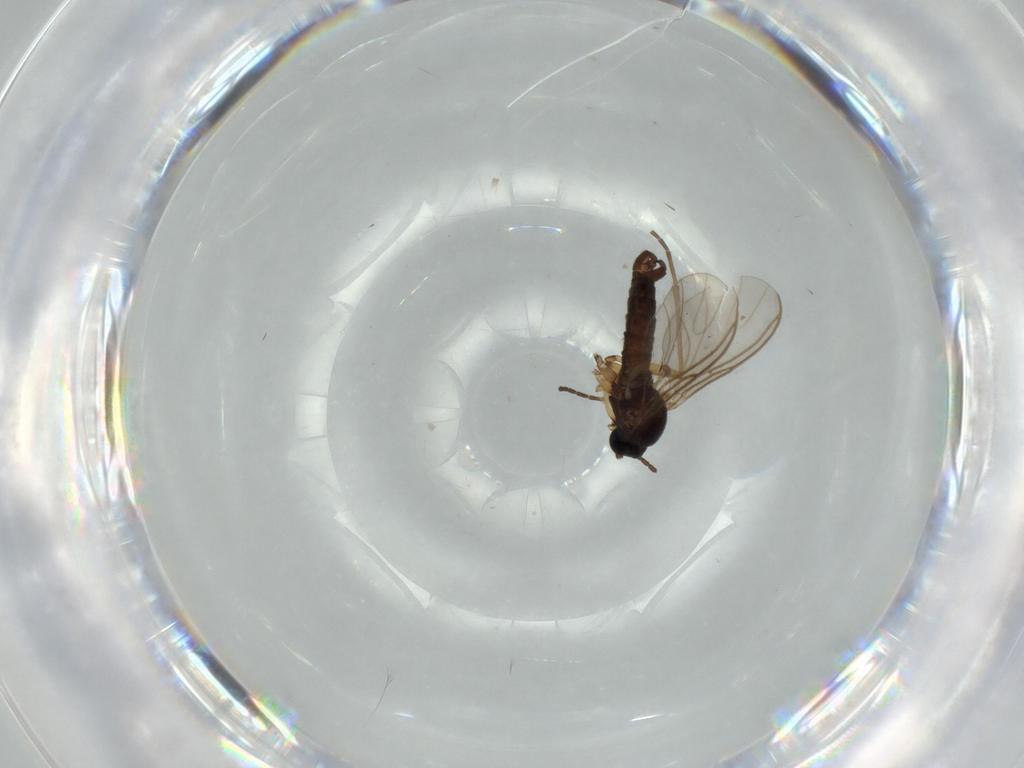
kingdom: Animalia
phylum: Arthropoda
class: Insecta
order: Diptera
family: Sciaridae
